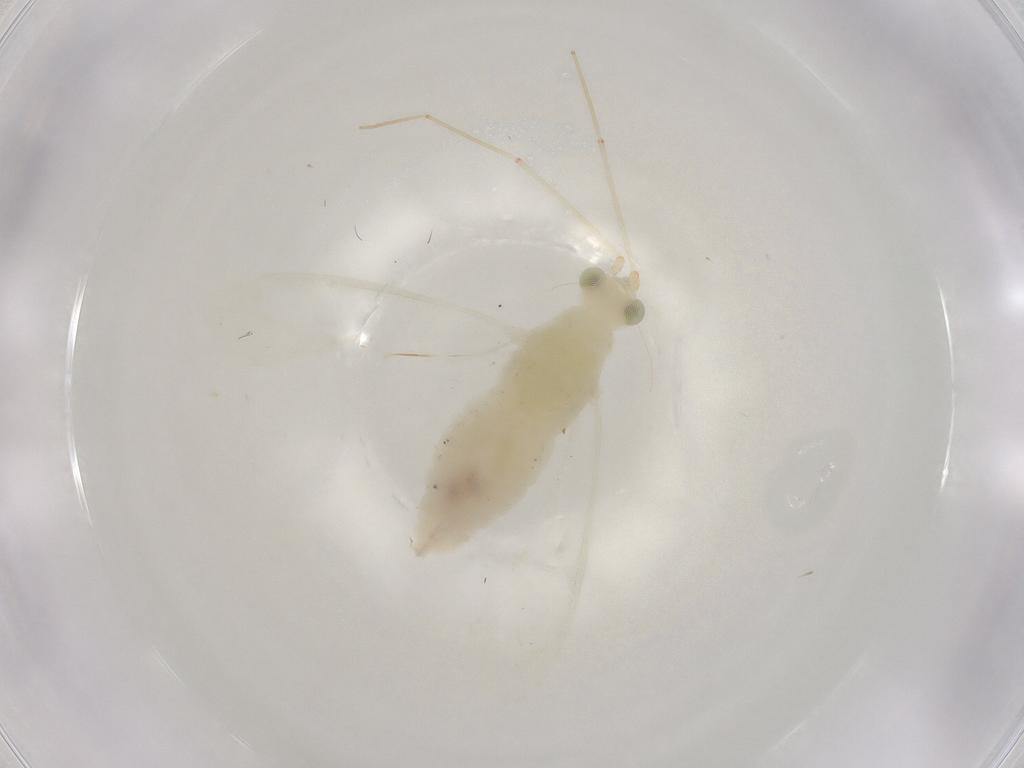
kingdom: Animalia
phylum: Arthropoda
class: Insecta
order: Hemiptera
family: Miridae
